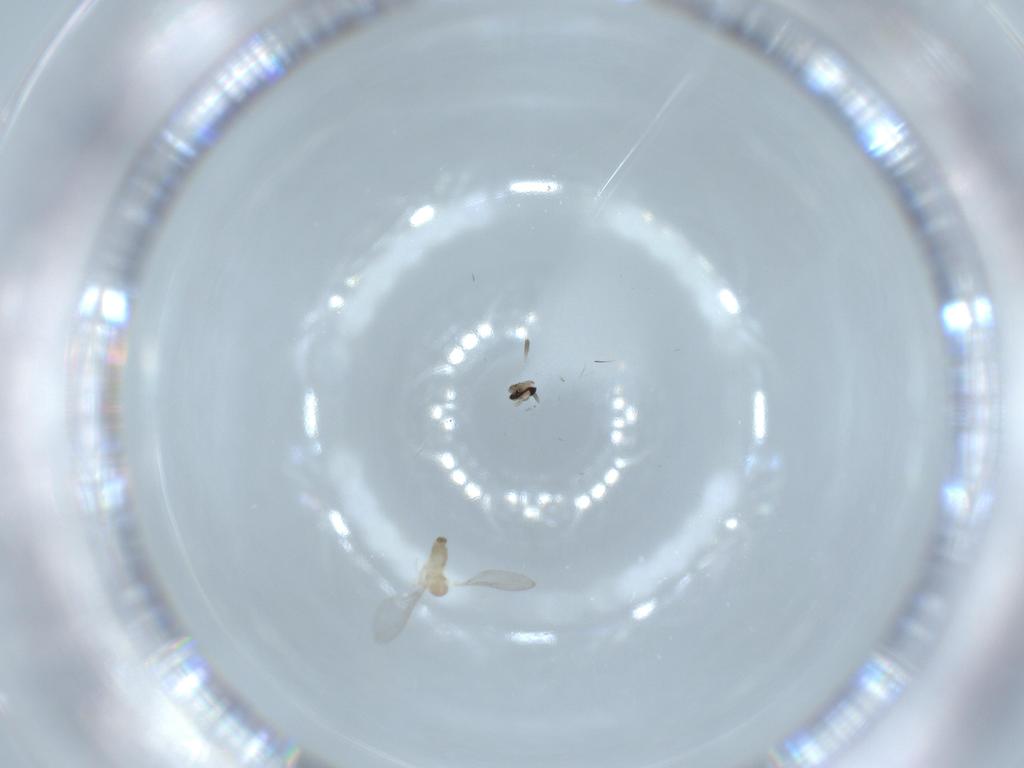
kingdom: Animalia
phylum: Arthropoda
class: Insecta
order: Diptera
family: Cecidomyiidae
